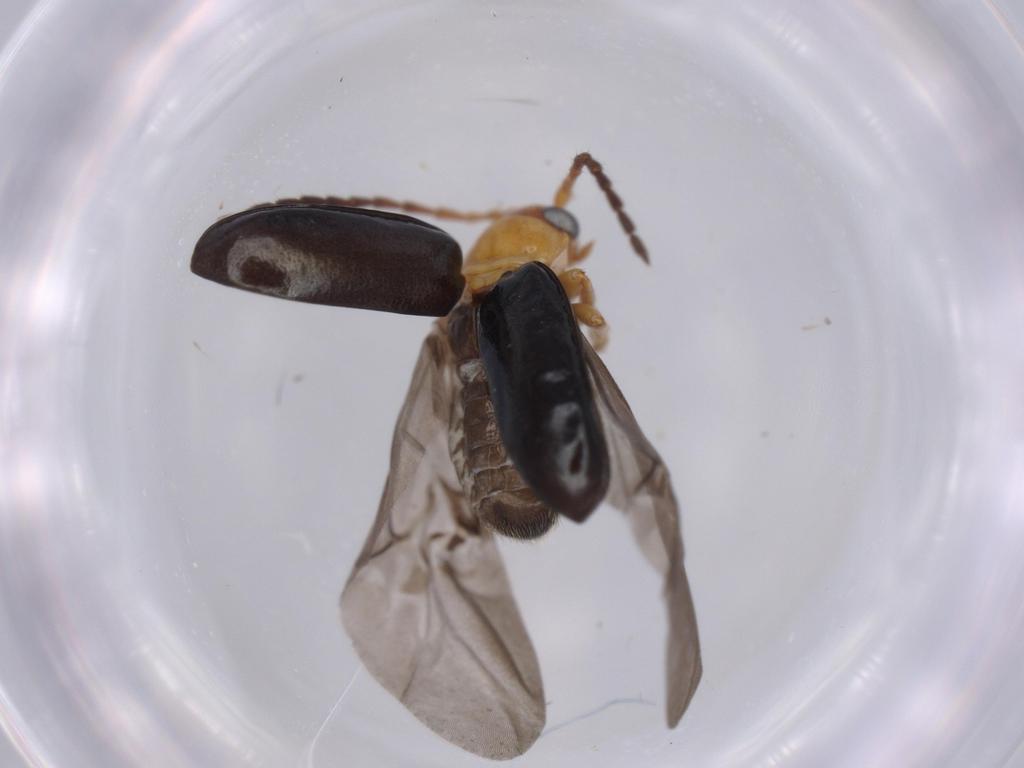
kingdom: Animalia
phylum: Arthropoda
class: Insecta
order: Coleoptera
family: Chrysomelidae
